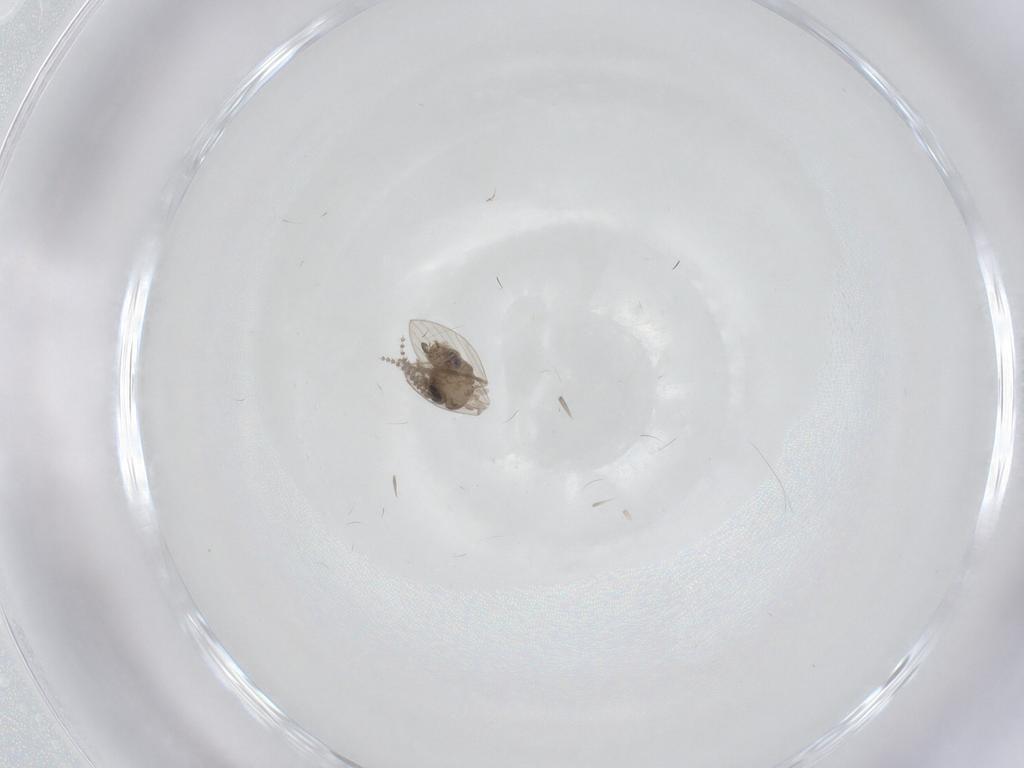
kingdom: Animalia
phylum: Arthropoda
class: Insecta
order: Diptera
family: Psychodidae
